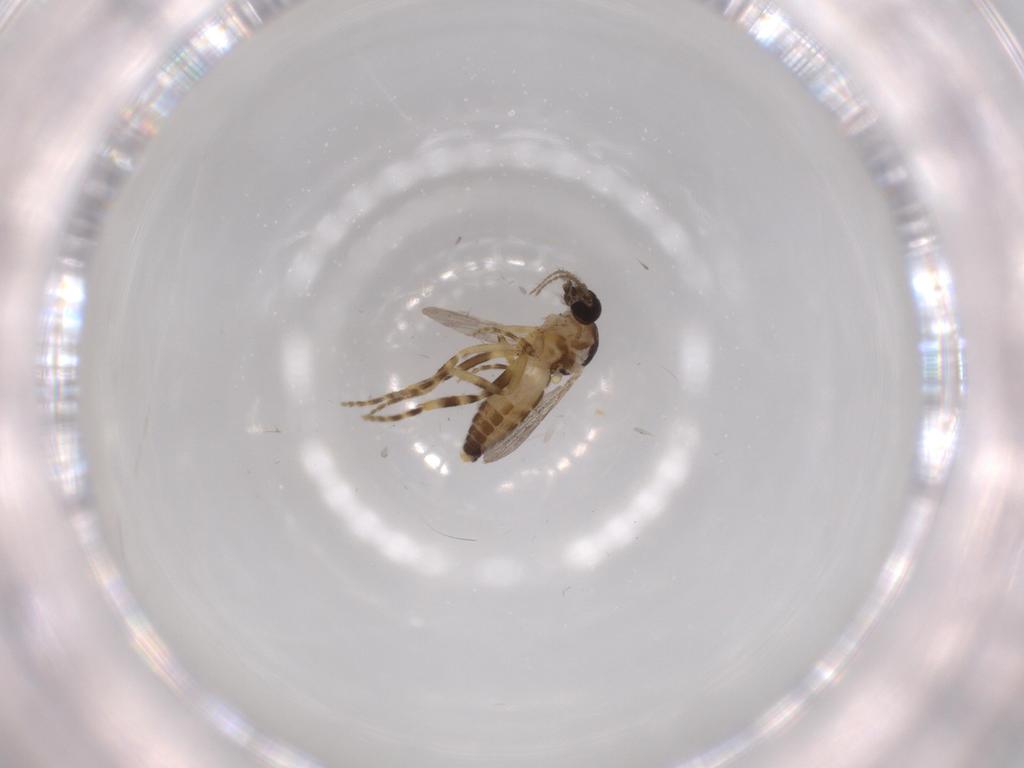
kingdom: Animalia
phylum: Arthropoda
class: Insecta
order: Diptera
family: Ceratopogonidae
